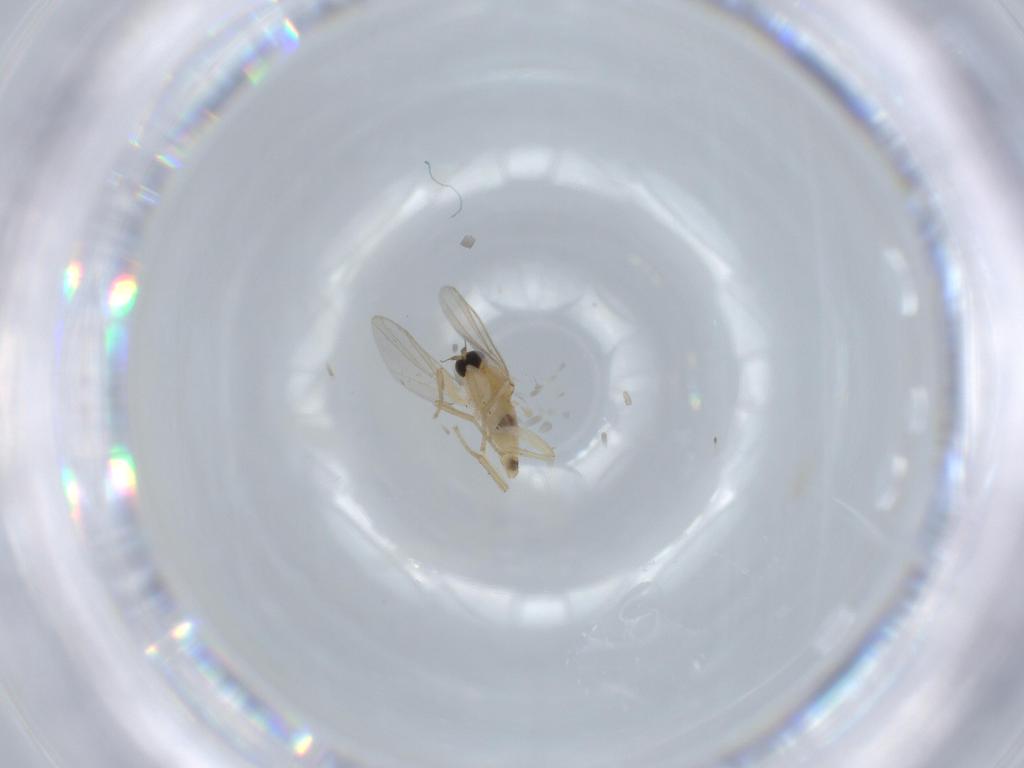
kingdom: Animalia
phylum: Arthropoda
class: Insecta
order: Diptera
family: Hybotidae
